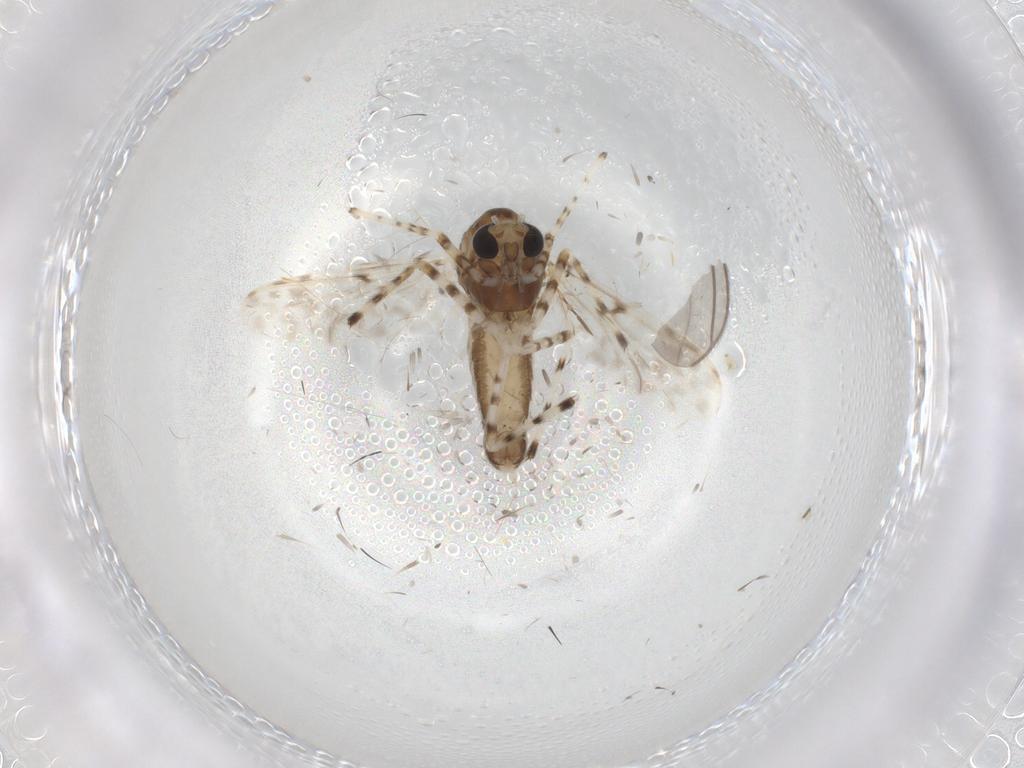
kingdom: Animalia
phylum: Arthropoda
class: Insecta
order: Diptera
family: Chironomidae
